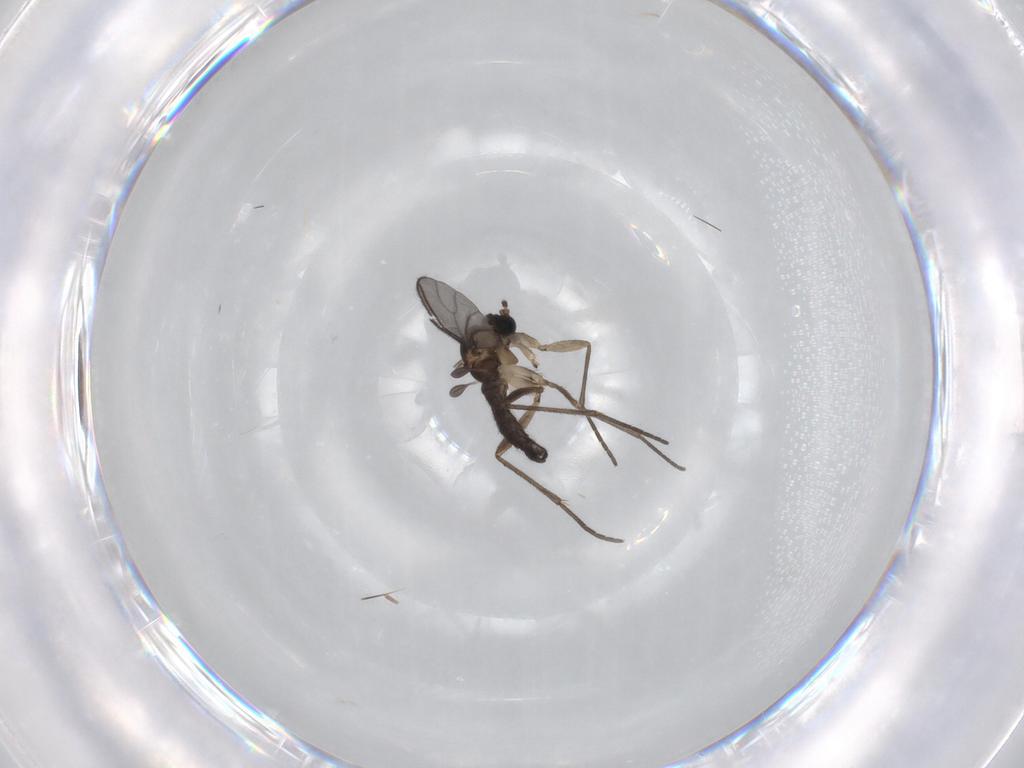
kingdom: Animalia
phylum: Arthropoda
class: Insecta
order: Diptera
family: Sciaridae
